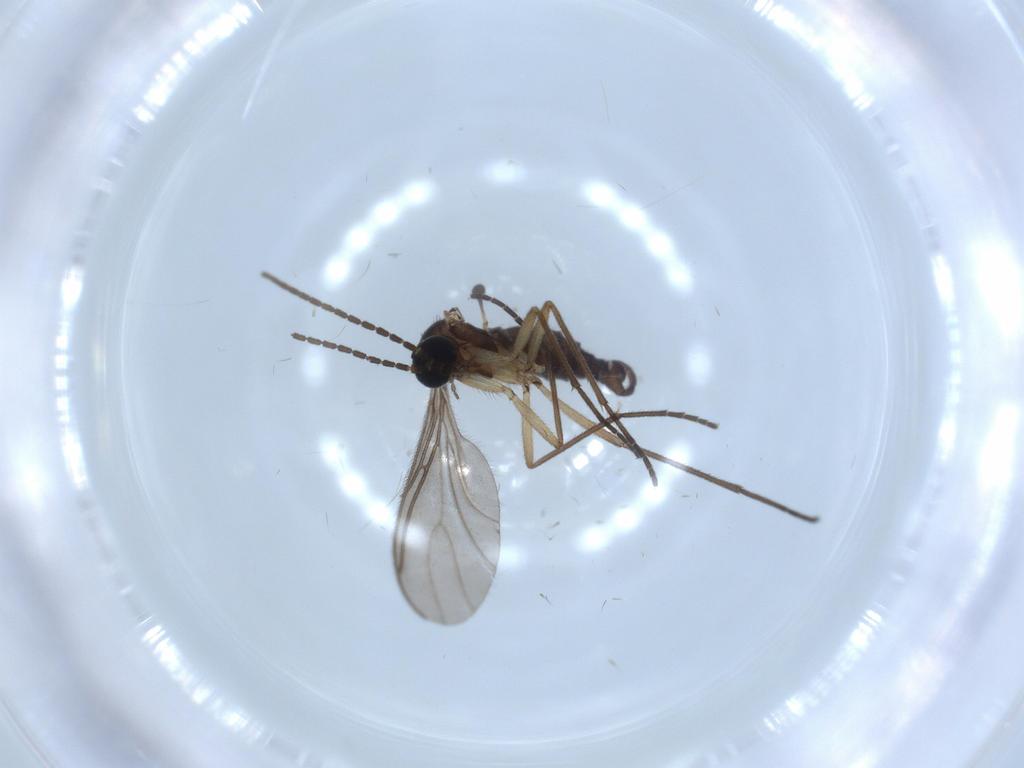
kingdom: Animalia
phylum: Arthropoda
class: Insecta
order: Diptera
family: Sciaridae
